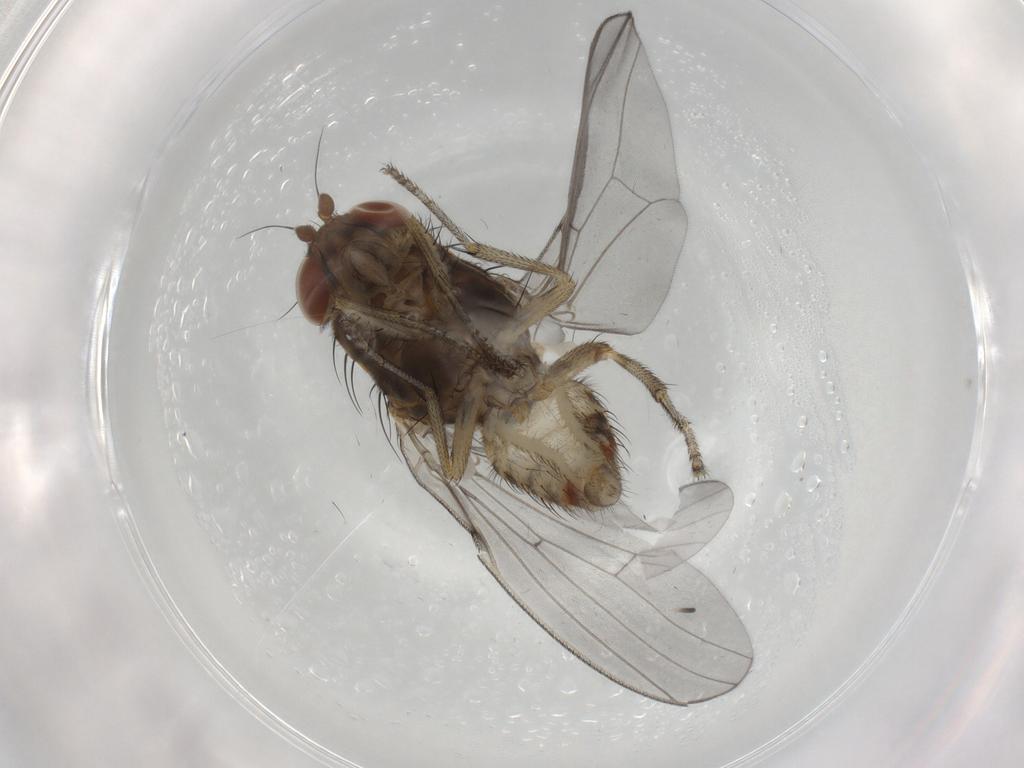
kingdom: Animalia
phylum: Arthropoda
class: Insecta
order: Diptera
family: Lauxaniidae
